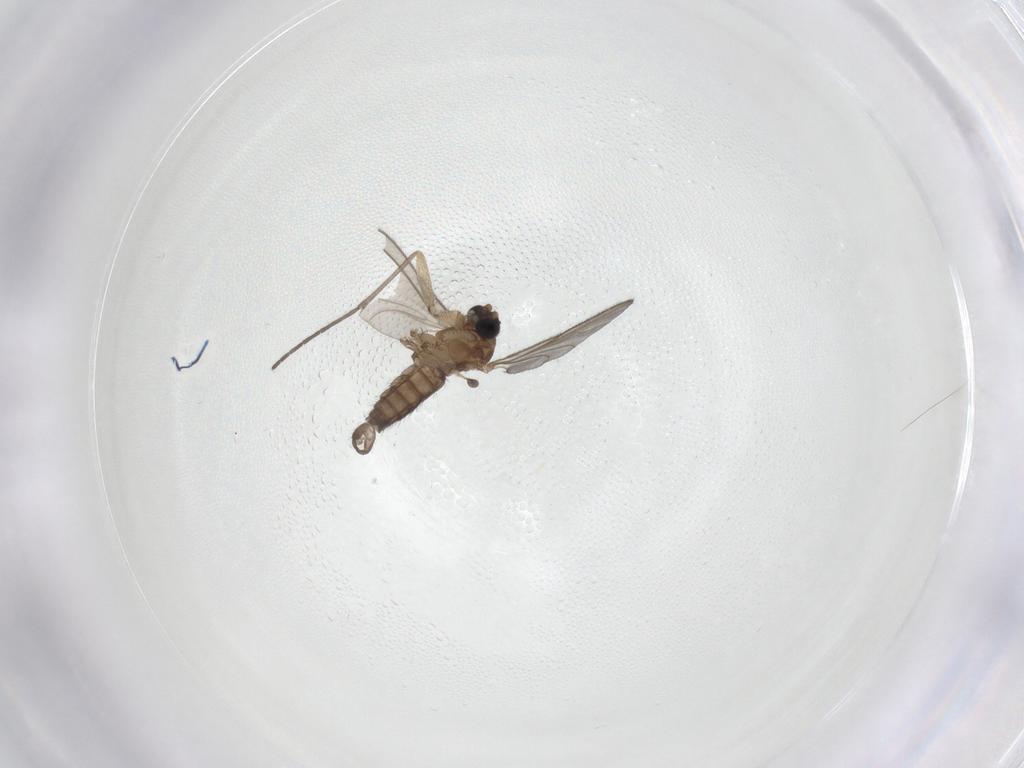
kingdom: Animalia
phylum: Arthropoda
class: Insecta
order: Diptera
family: Sciaridae
